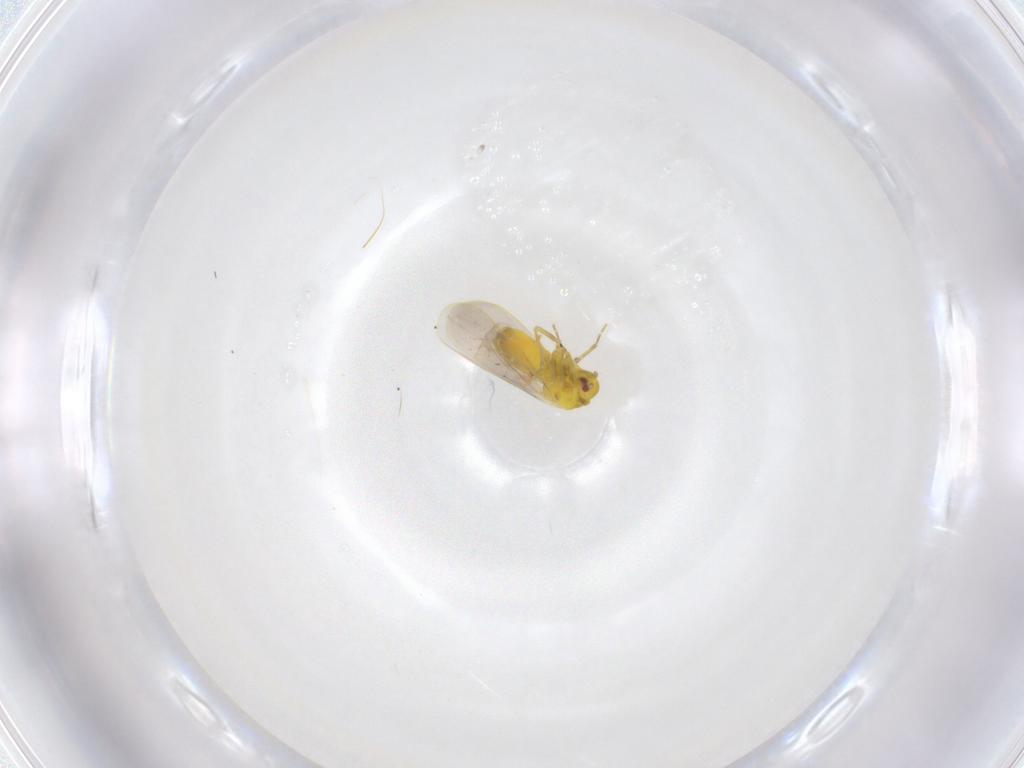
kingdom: Animalia
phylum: Arthropoda
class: Insecta
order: Hemiptera
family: Aleyrodidae
